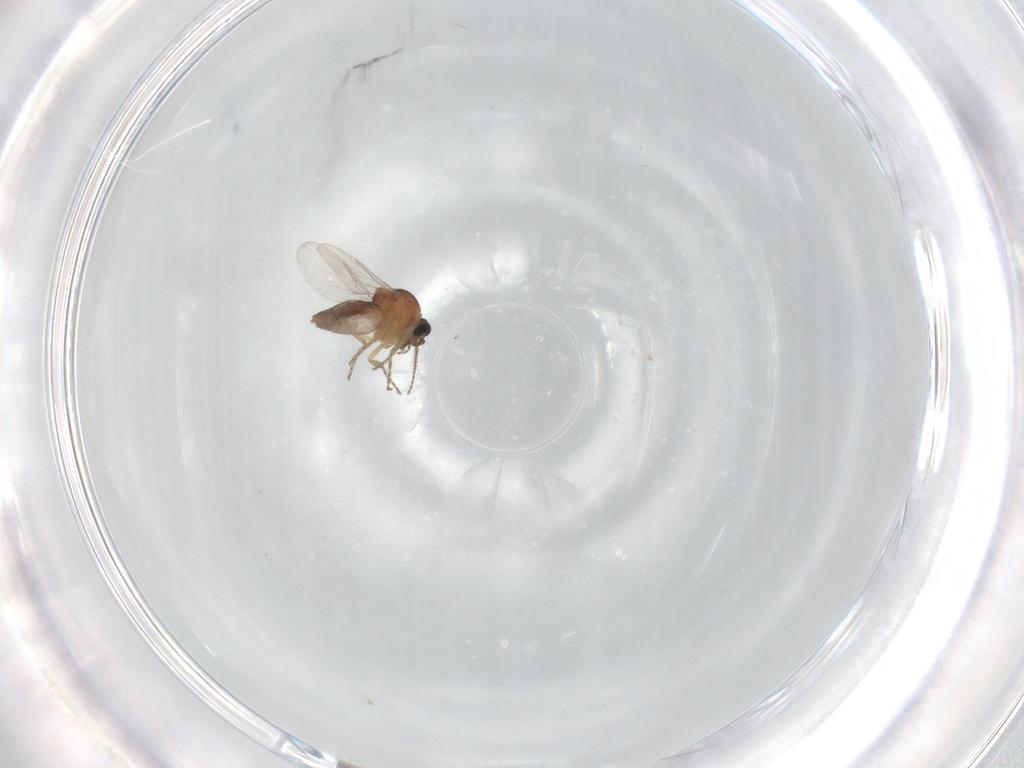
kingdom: Animalia
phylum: Arthropoda
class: Insecta
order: Diptera
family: Ceratopogonidae
